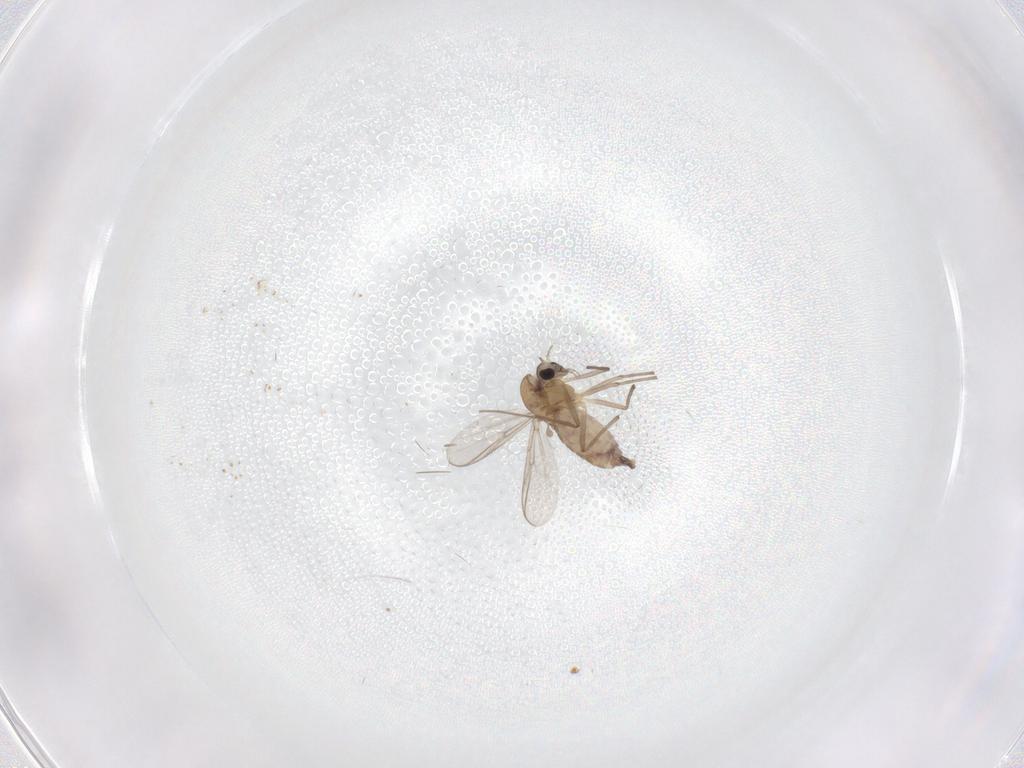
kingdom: Animalia
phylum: Arthropoda
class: Insecta
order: Diptera
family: Chironomidae
